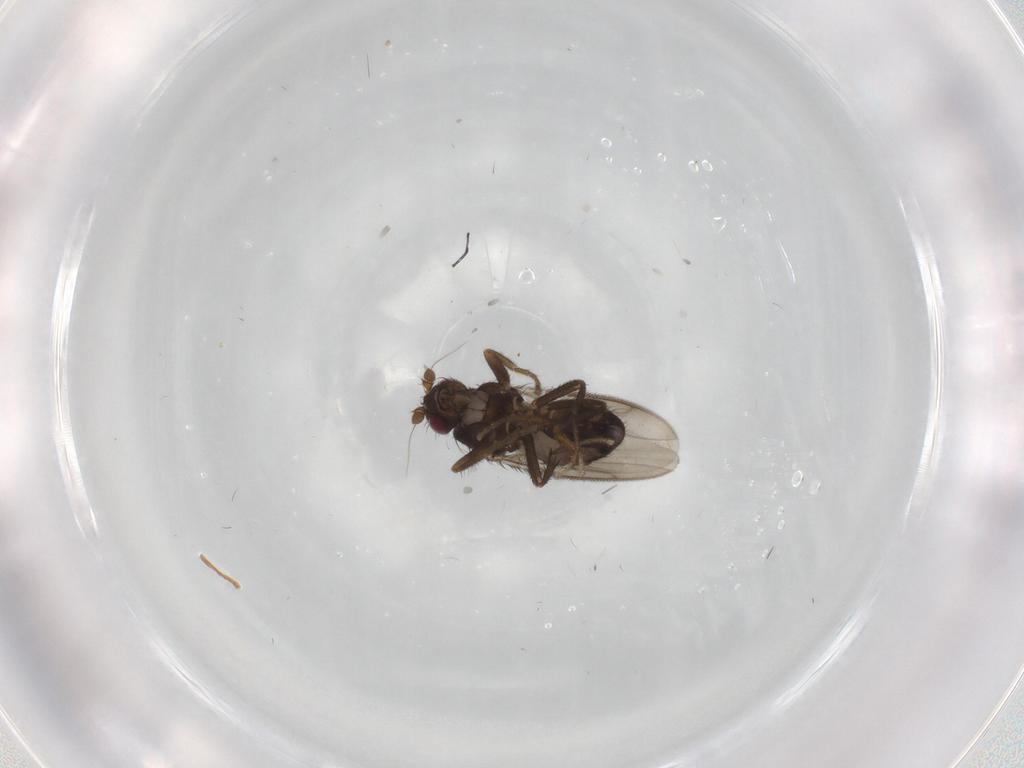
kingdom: Animalia
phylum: Arthropoda
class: Insecta
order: Diptera
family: Sphaeroceridae
